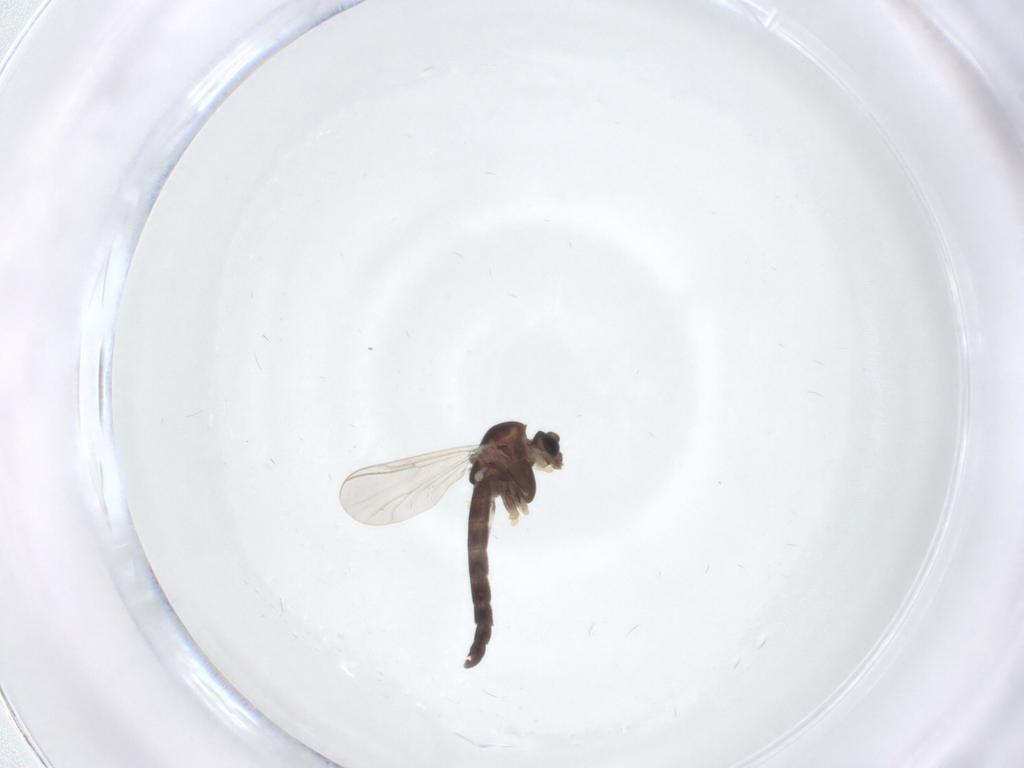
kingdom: Animalia
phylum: Arthropoda
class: Insecta
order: Diptera
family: Chironomidae
